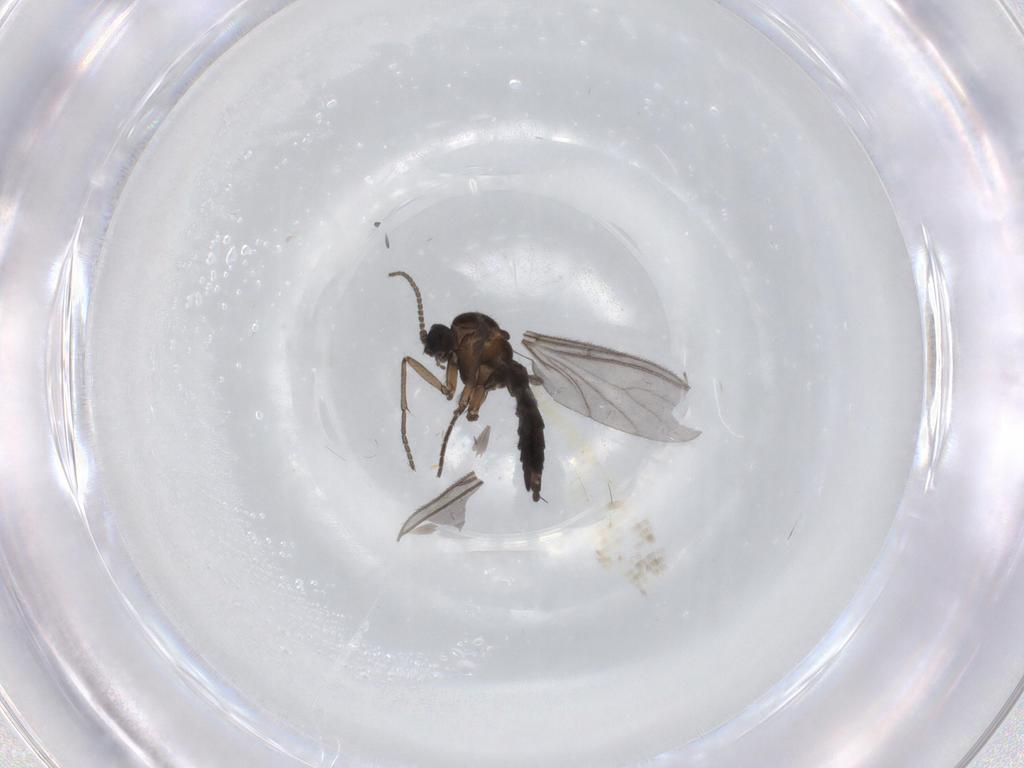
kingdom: Animalia
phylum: Arthropoda
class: Insecta
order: Diptera
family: Sciaridae
